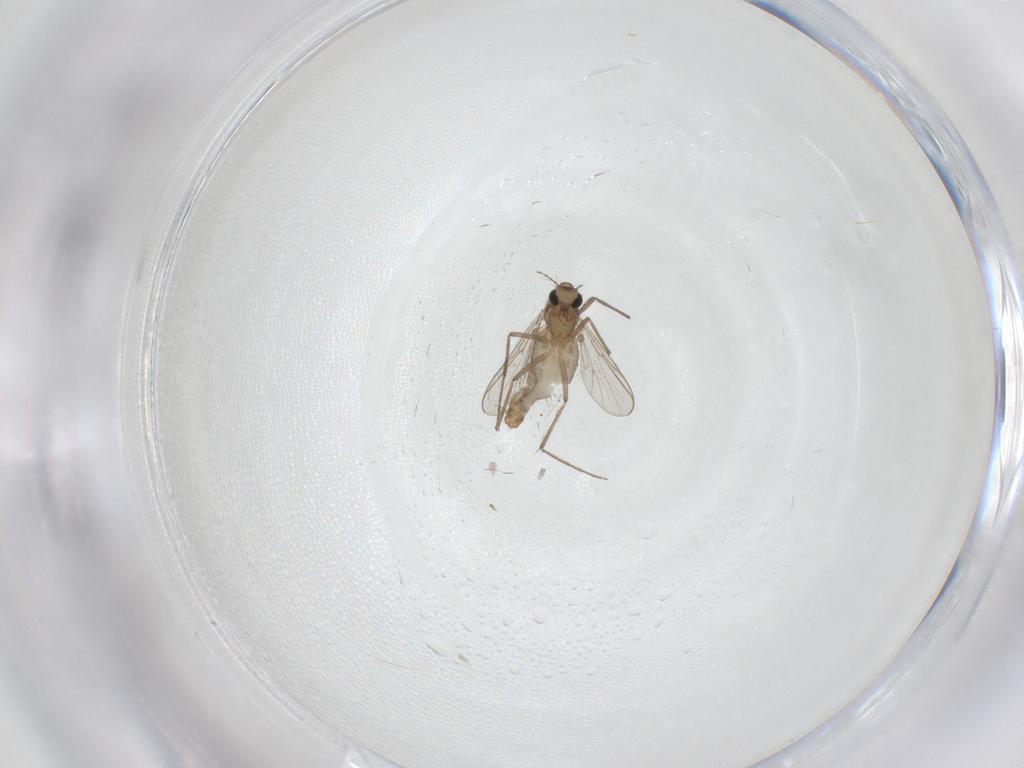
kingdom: Animalia
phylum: Arthropoda
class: Insecta
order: Diptera
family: Chironomidae
